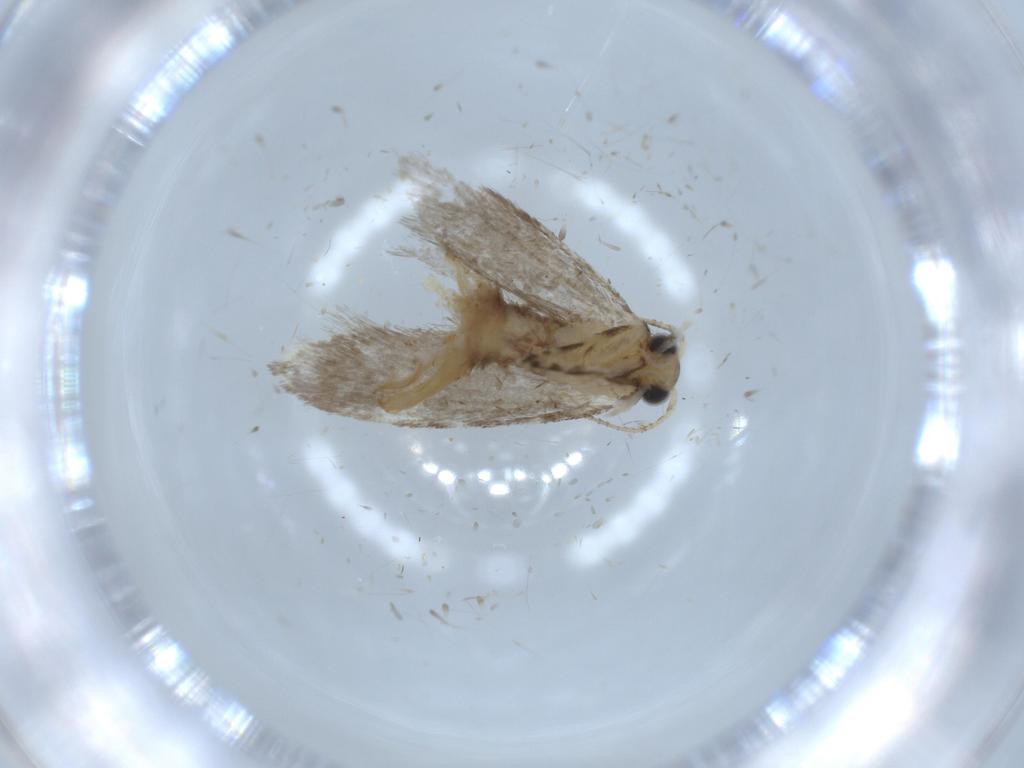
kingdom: Animalia
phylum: Arthropoda
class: Insecta
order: Lepidoptera
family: Tineidae
